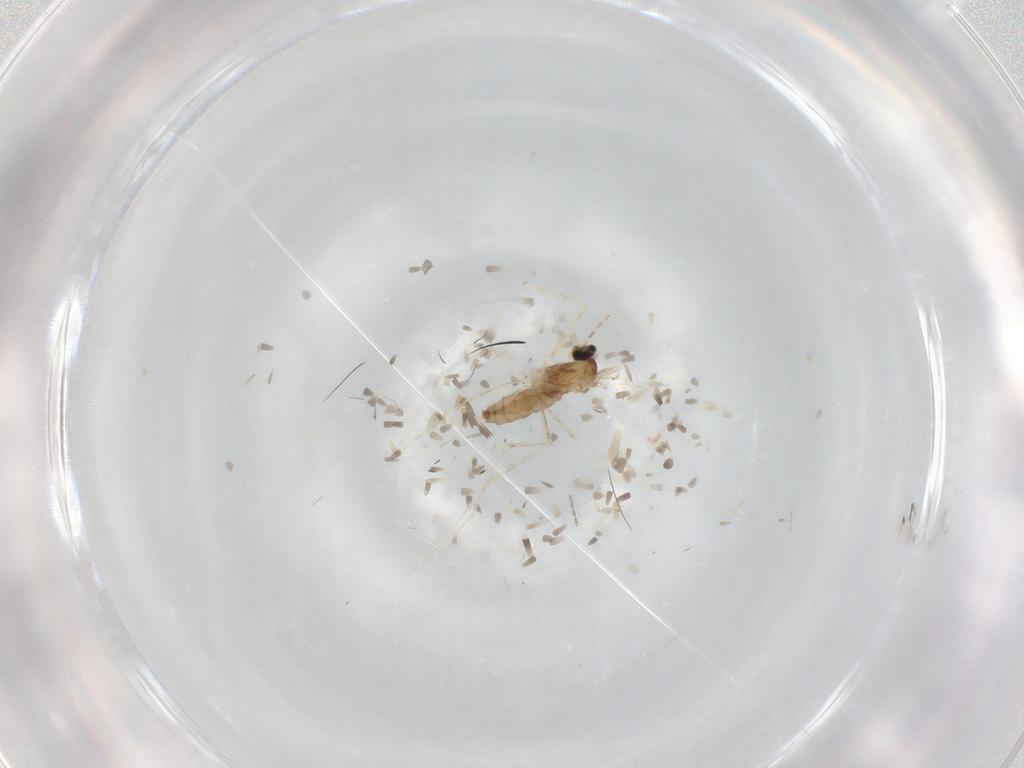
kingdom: Animalia
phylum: Arthropoda
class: Insecta
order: Diptera
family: Cecidomyiidae
